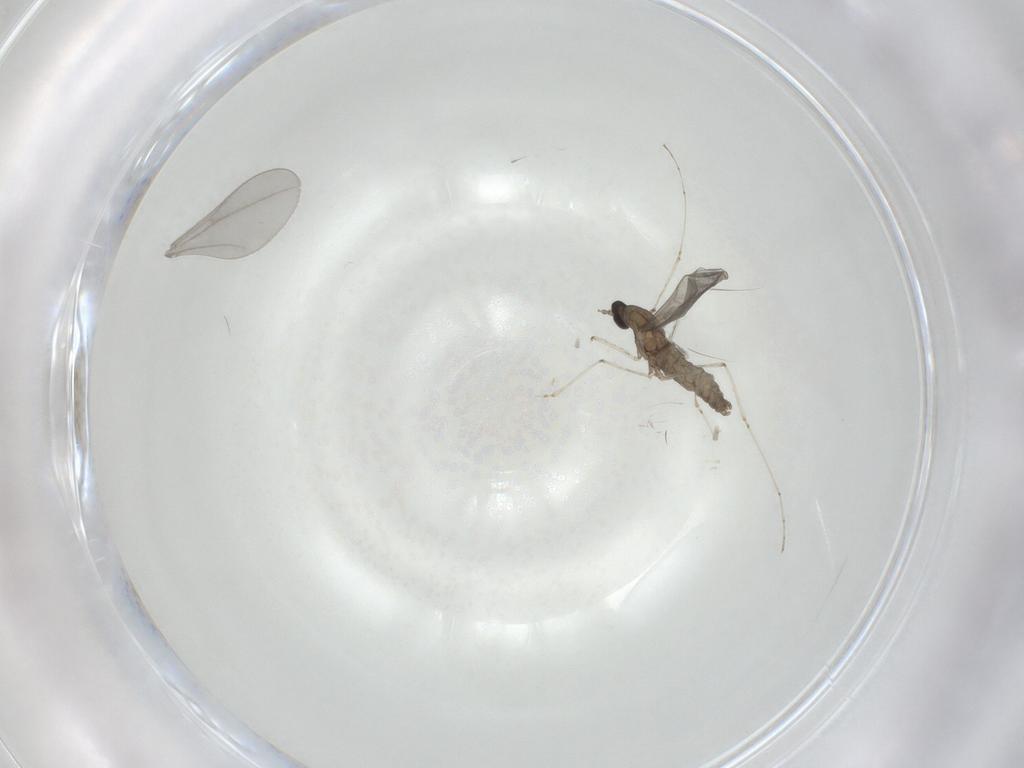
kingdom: Animalia
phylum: Arthropoda
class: Insecta
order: Diptera
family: Cecidomyiidae
